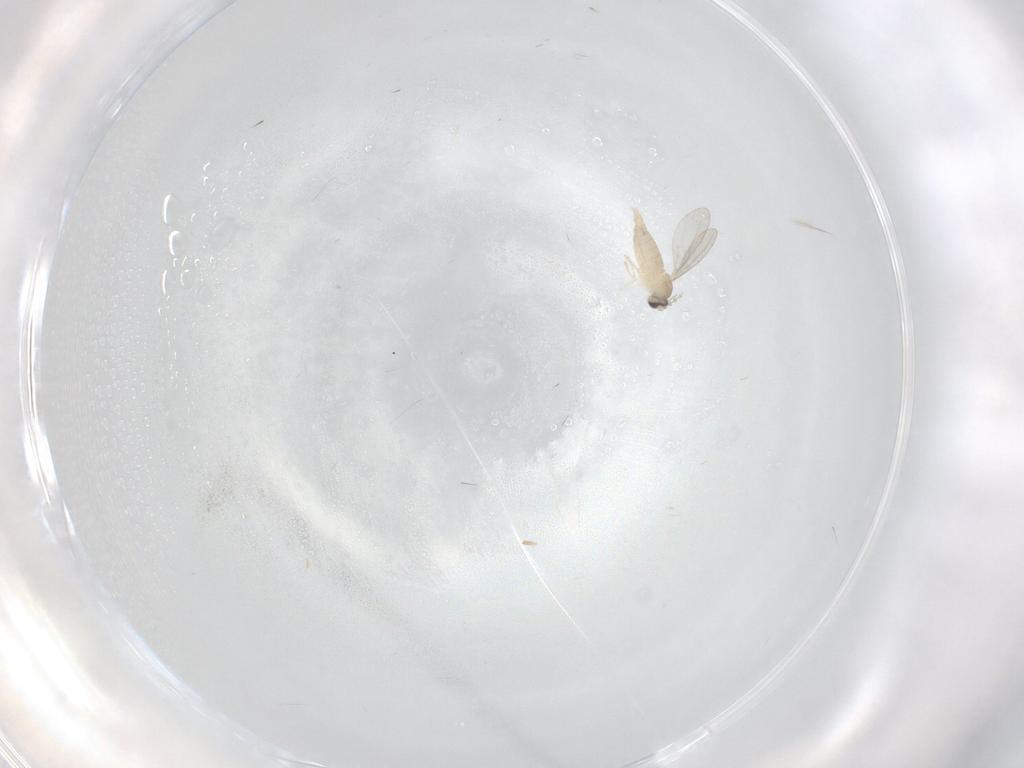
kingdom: Animalia
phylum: Arthropoda
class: Insecta
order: Diptera
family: Cecidomyiidae
